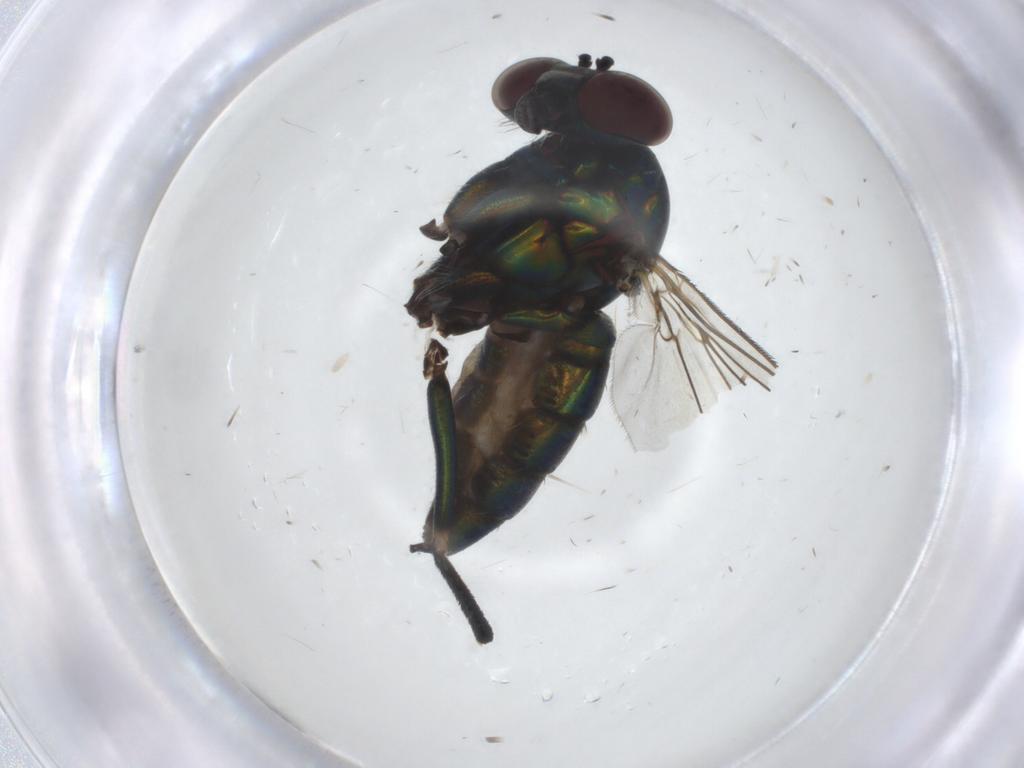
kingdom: Animalia
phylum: Arthropoda
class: Insecta
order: Diptera
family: Dolichopodidae
